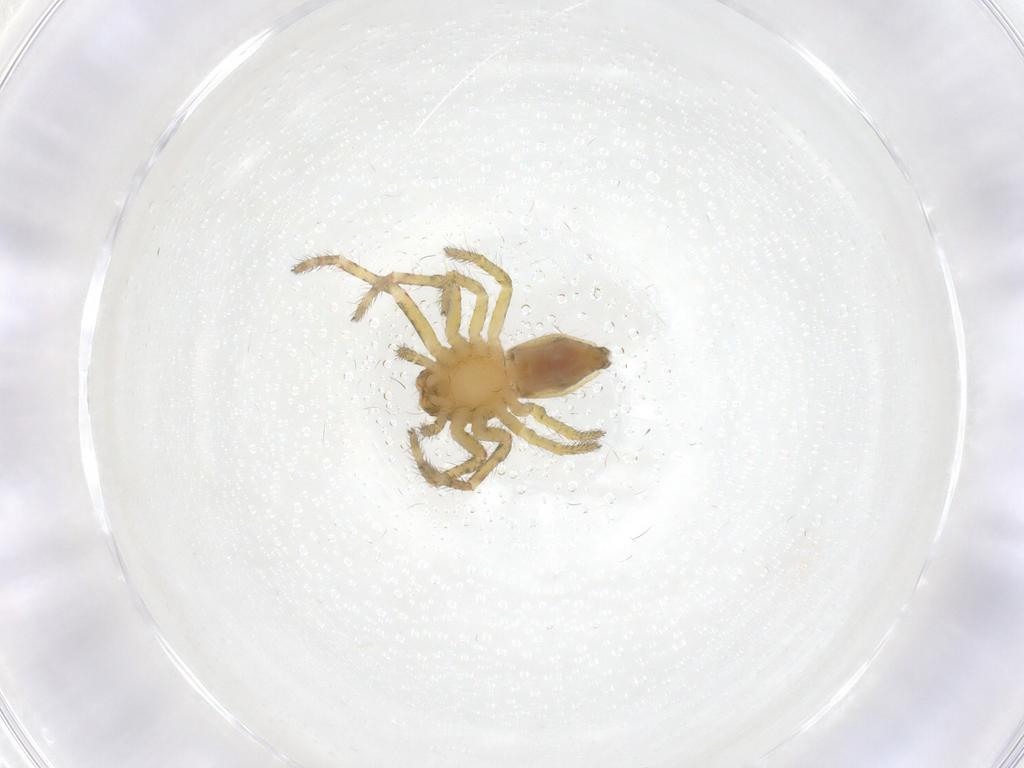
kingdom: Animalia
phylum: Arthropoda
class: Arachnida
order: Araneae
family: Thomisidae
